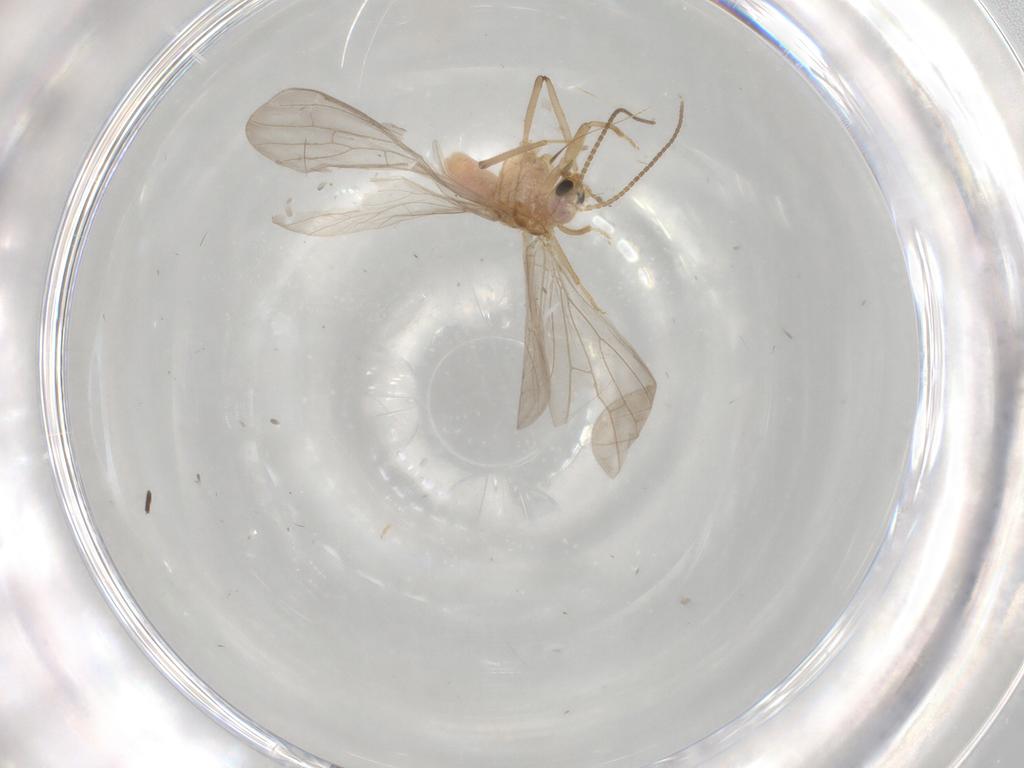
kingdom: Animalia
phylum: Arthropoda
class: Insecta
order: Neuroptera
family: Coniopterygidae
